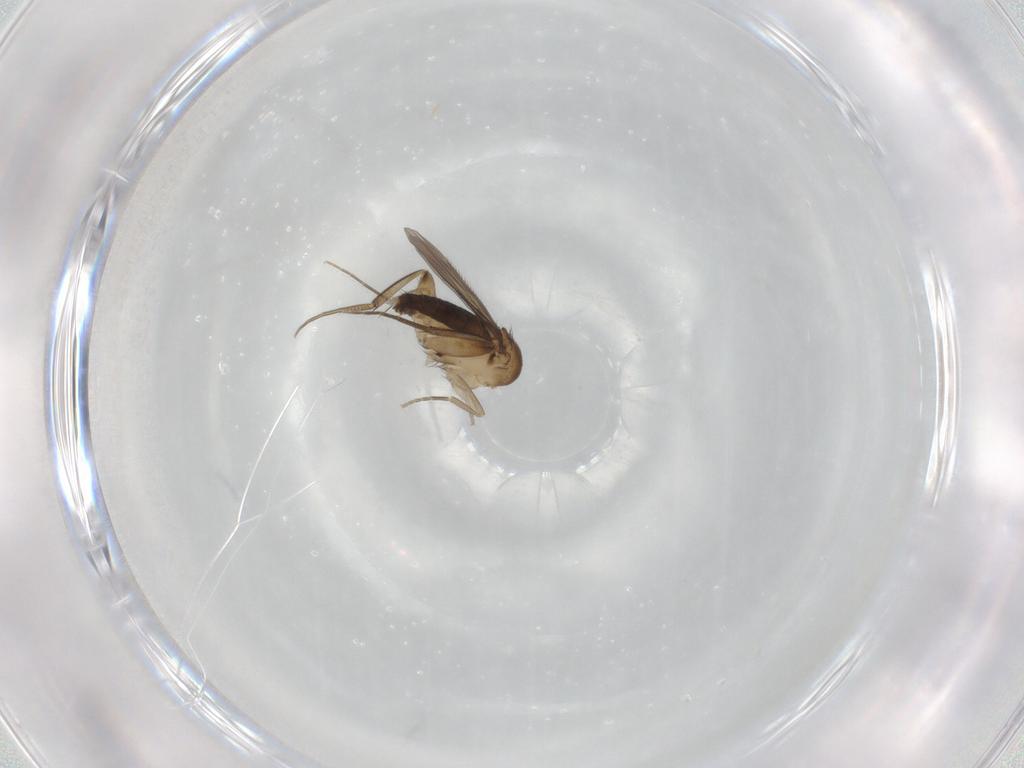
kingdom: Animalia
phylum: Arthropoda
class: Insecta
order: Diptera
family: Phoridae
